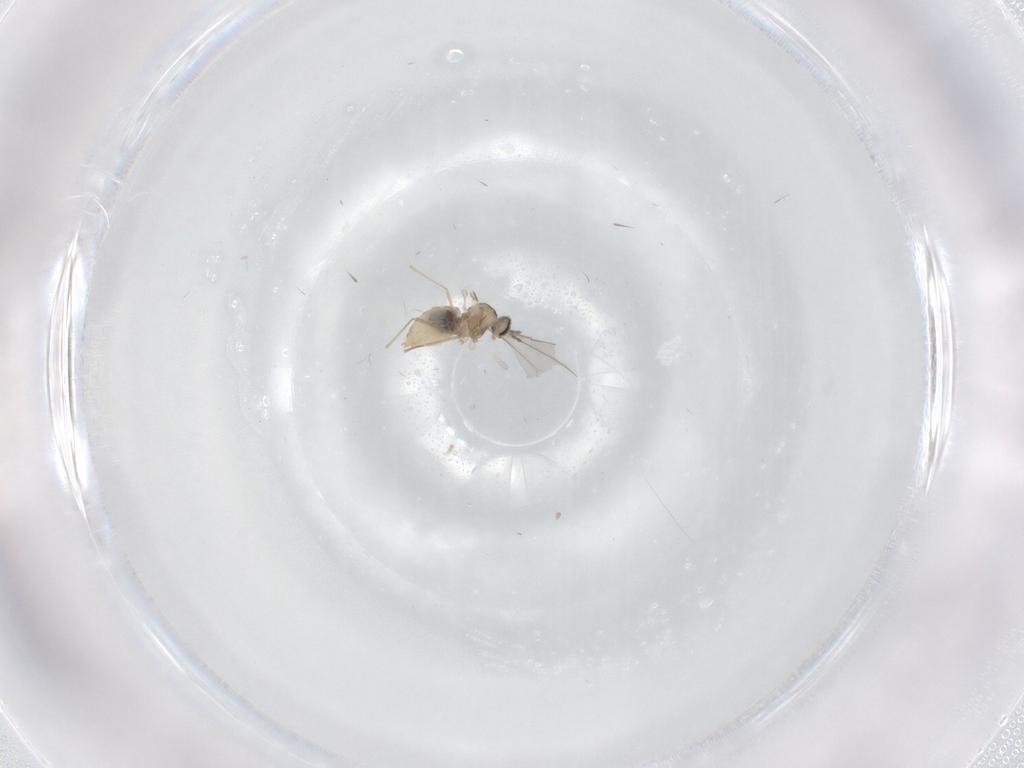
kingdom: Animalia
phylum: Arthropoda
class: Insecta
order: Diptera
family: Cecidomyiidae
